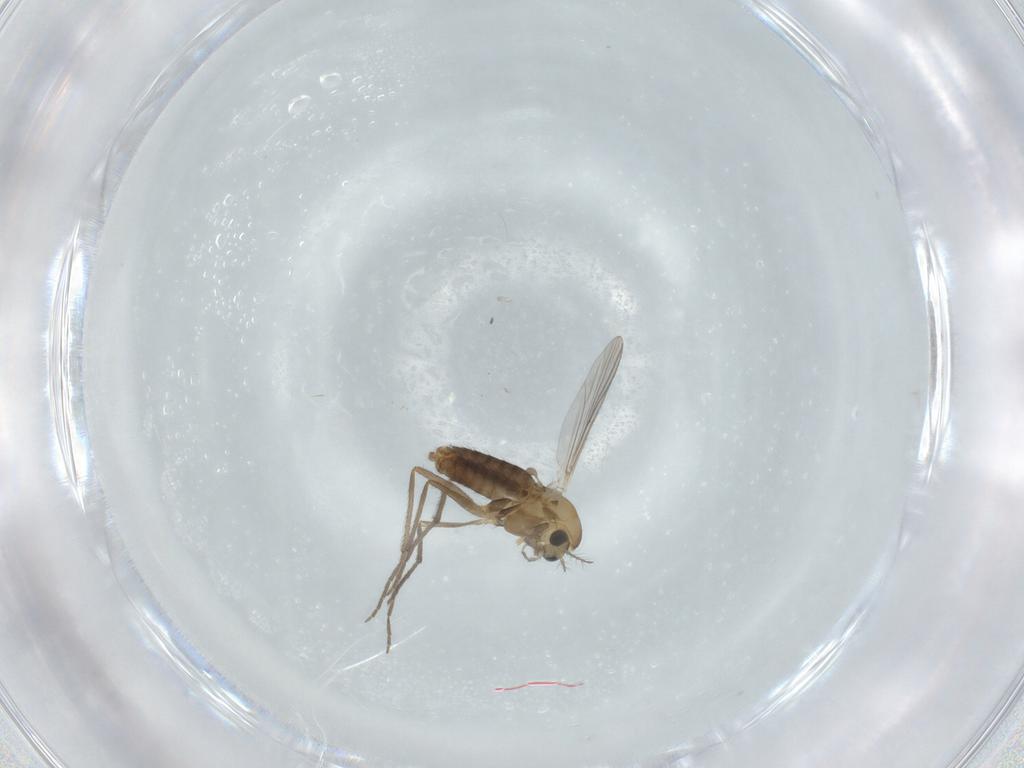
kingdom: Animalia
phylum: Arthropoda
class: Insecta
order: Diptera
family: Chironomidae
